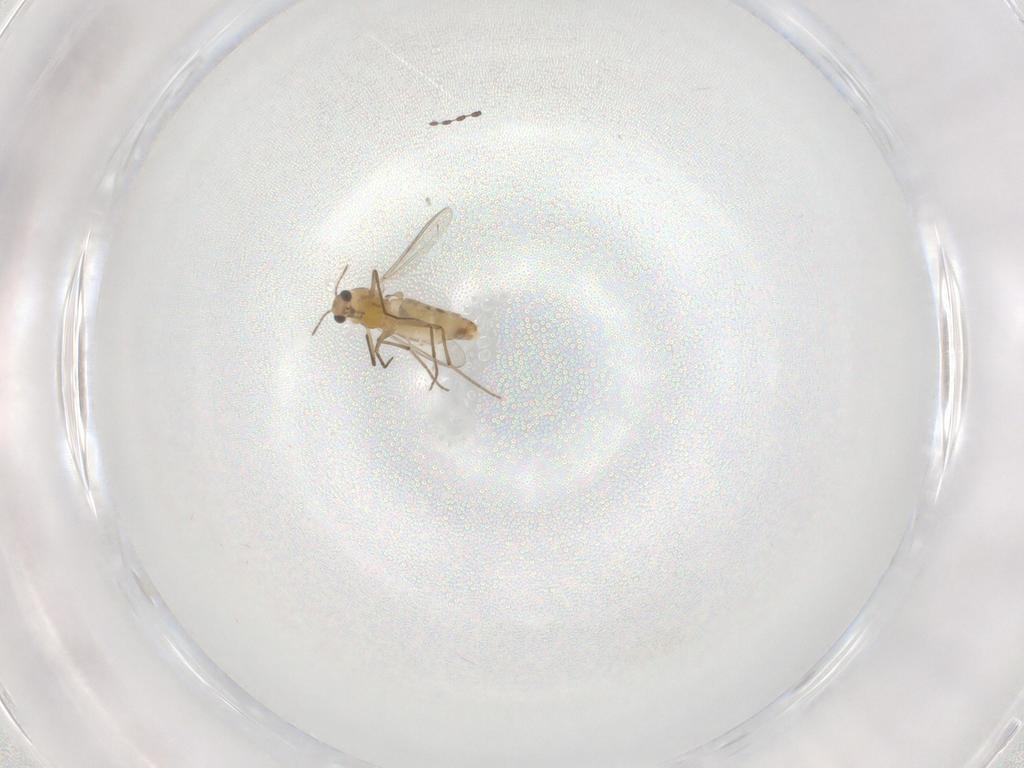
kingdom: Animalia
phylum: Arthropoda
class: Insecta
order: Diptera
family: Chironomidae
